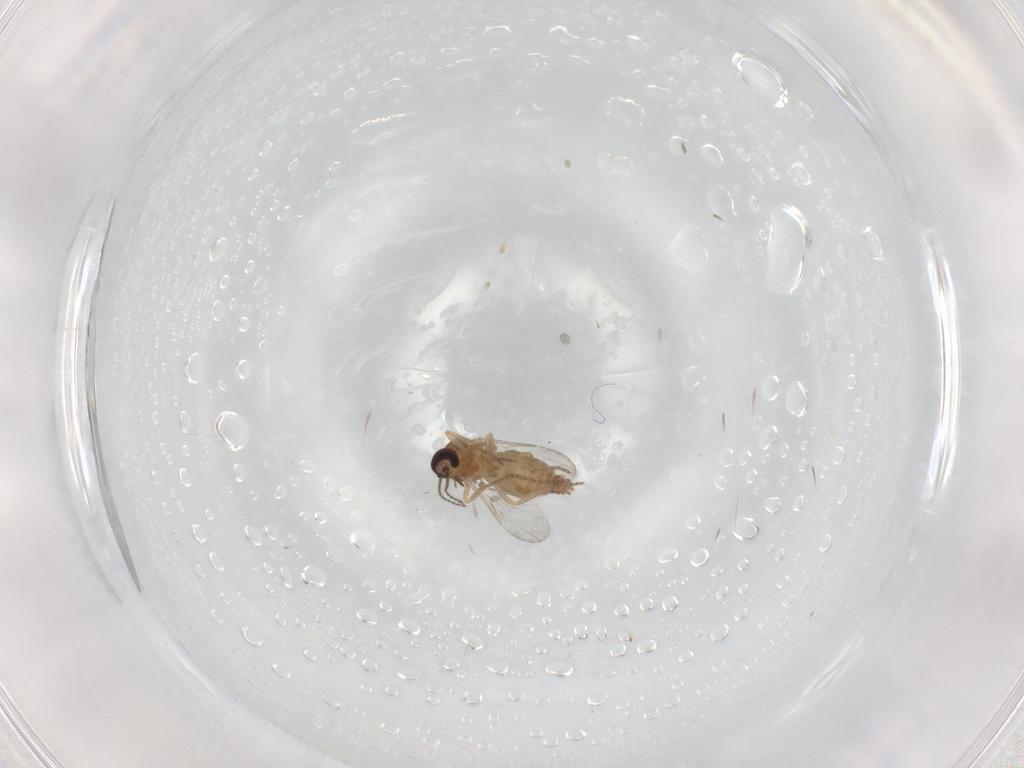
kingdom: Animalia
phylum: Arthropoda
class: Insecta
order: Diptera
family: Ceratopogonidae
